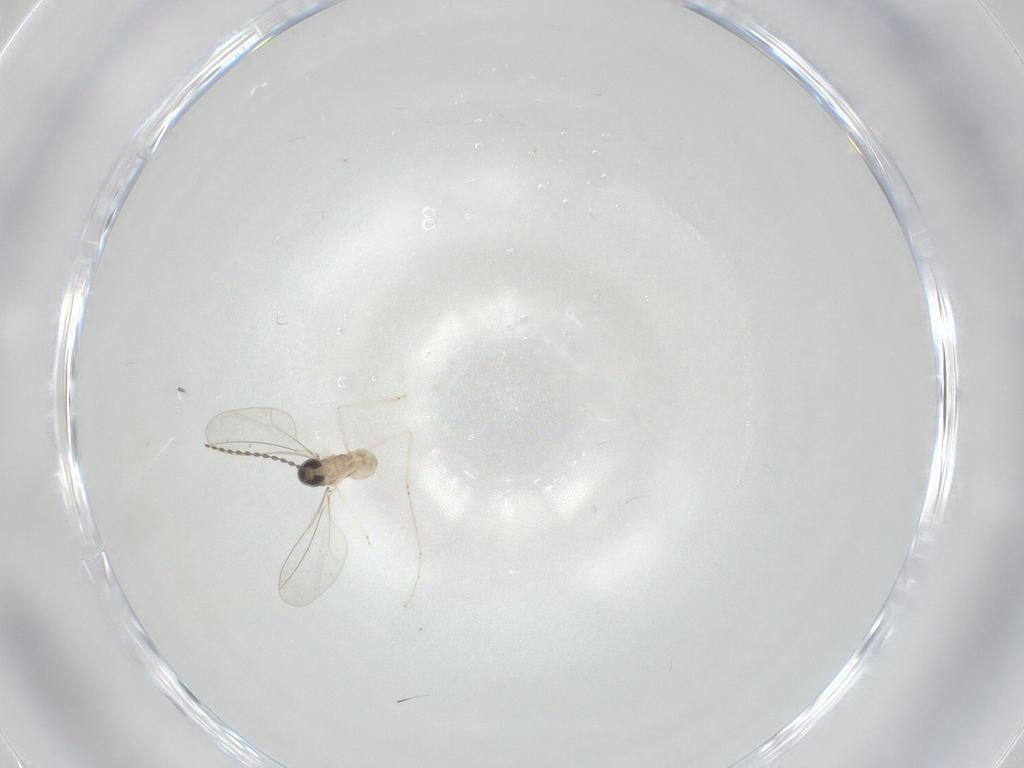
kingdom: Animalia
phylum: Arthropoda
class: Insecta
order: Diptera
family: Cecidomyiidae
